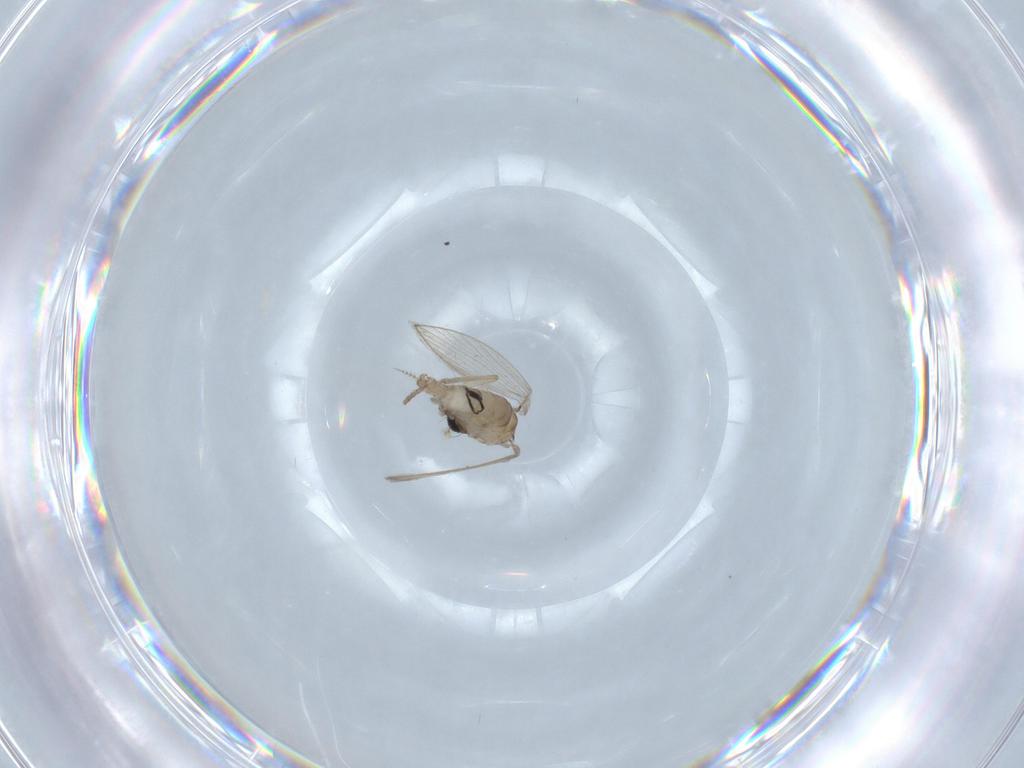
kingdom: Animalia
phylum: Arthropoda
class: Insecta
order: Diptera
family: Psychodidae
